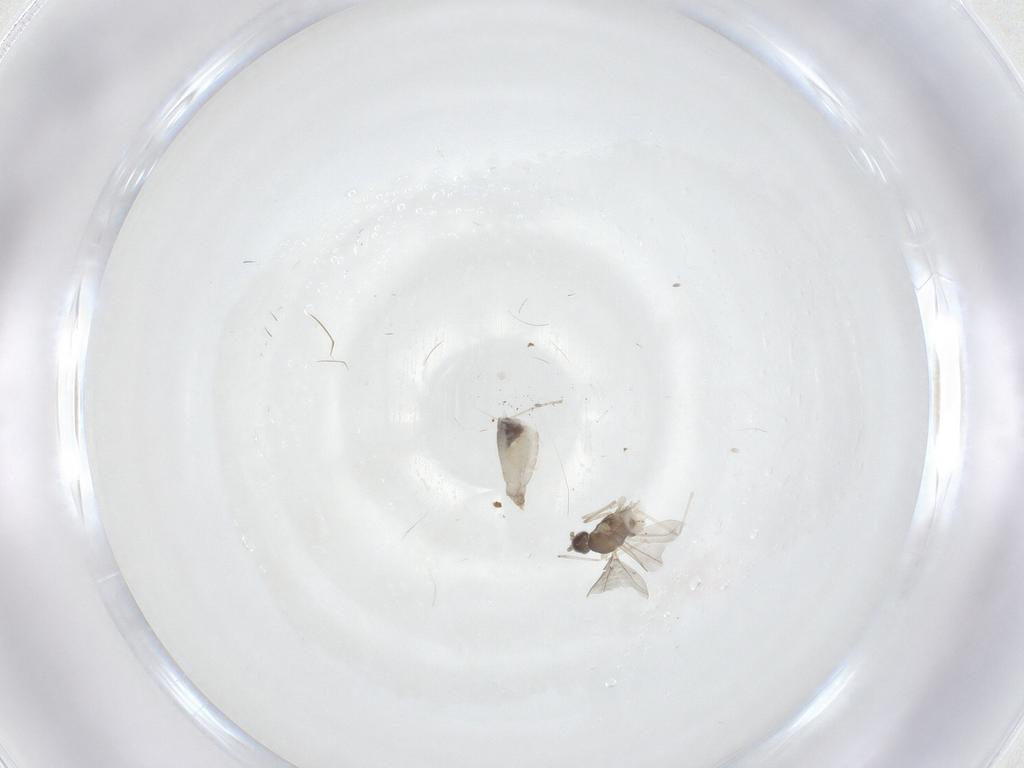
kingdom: Animalia
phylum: Arthropoda
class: Insecta
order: Diptera
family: Cecidomyiidae
